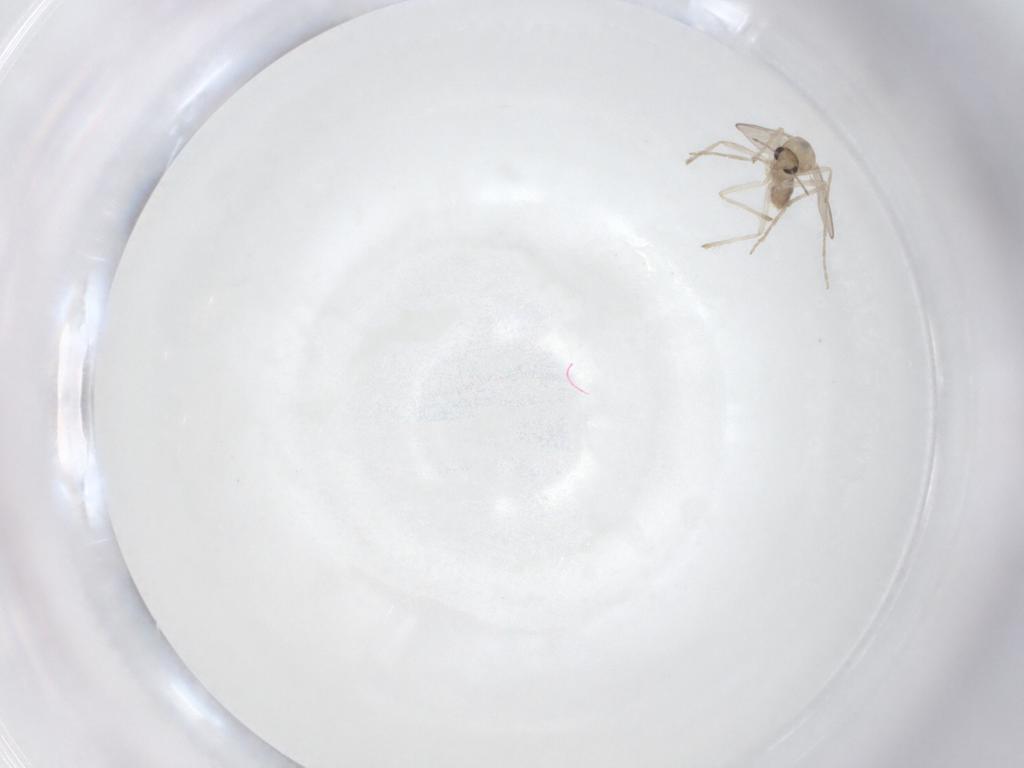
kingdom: Animalia
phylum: Arthropoda
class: Insecta
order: Diptera
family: Chironomidae
